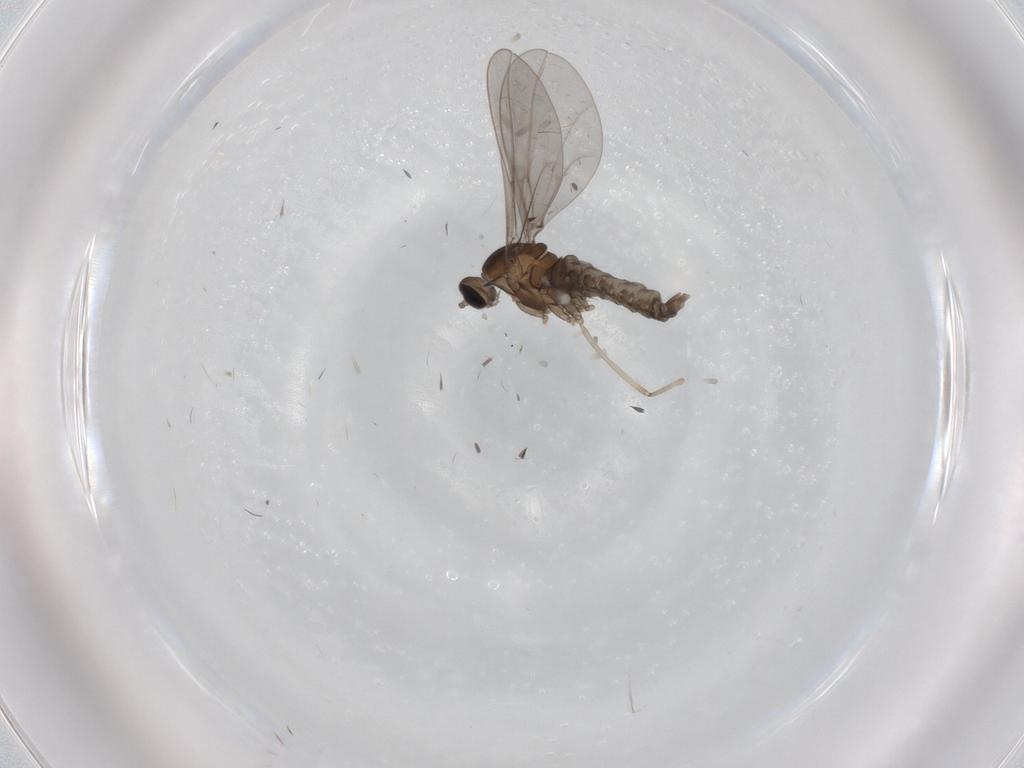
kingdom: Animalia
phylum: Arthropoda
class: Insecta
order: Diptera
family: Cecidomyiidae
